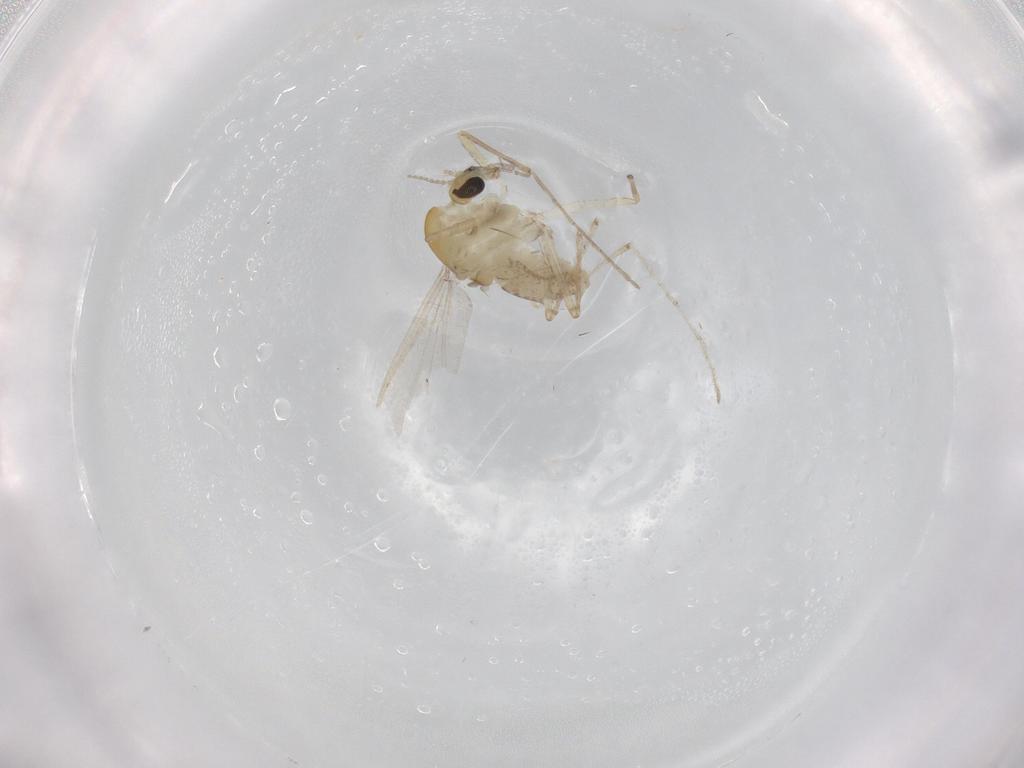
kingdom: Animalia
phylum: Arthropoda
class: Insecta
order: Diptera
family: Chironomidae
